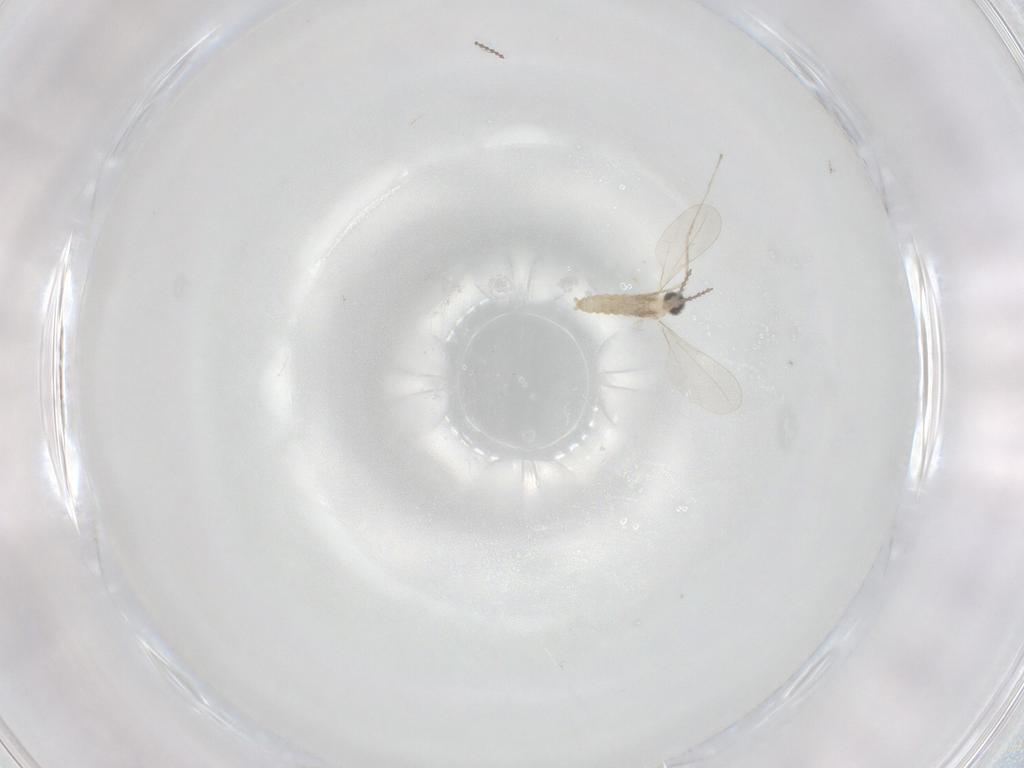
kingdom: Animalia
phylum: Arthropoda
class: Insecta
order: Diptera
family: Cecidomyiidae
